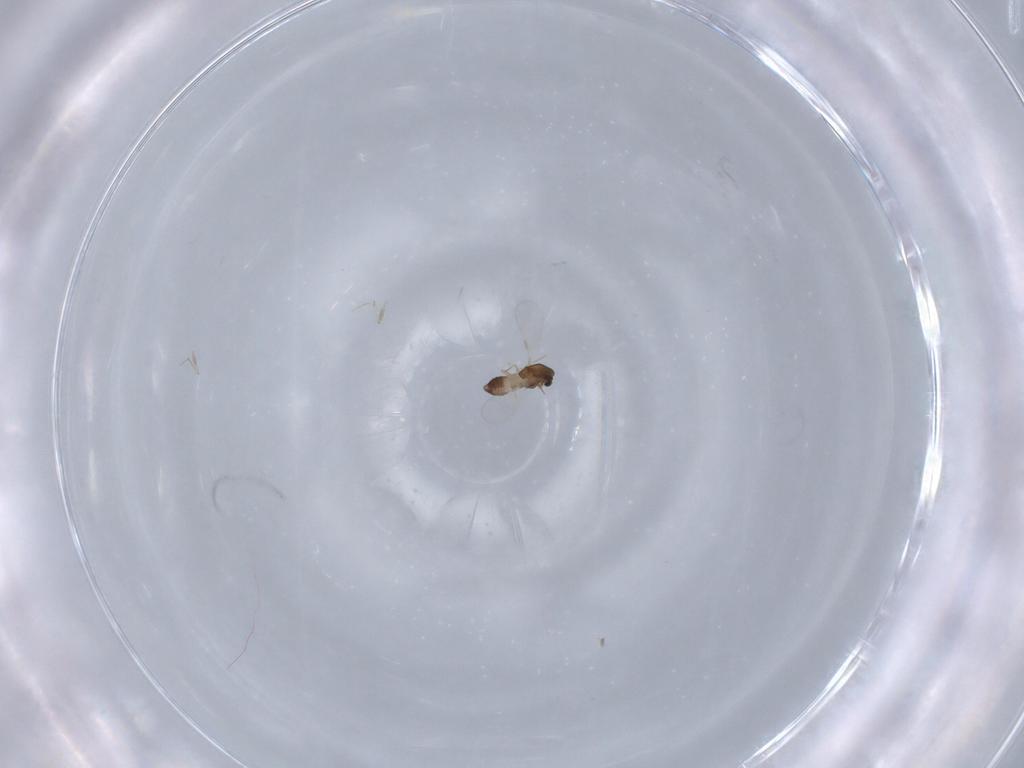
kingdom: Animalia
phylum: Arthropoda
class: Insecta
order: Diptera
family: Chironomidae
